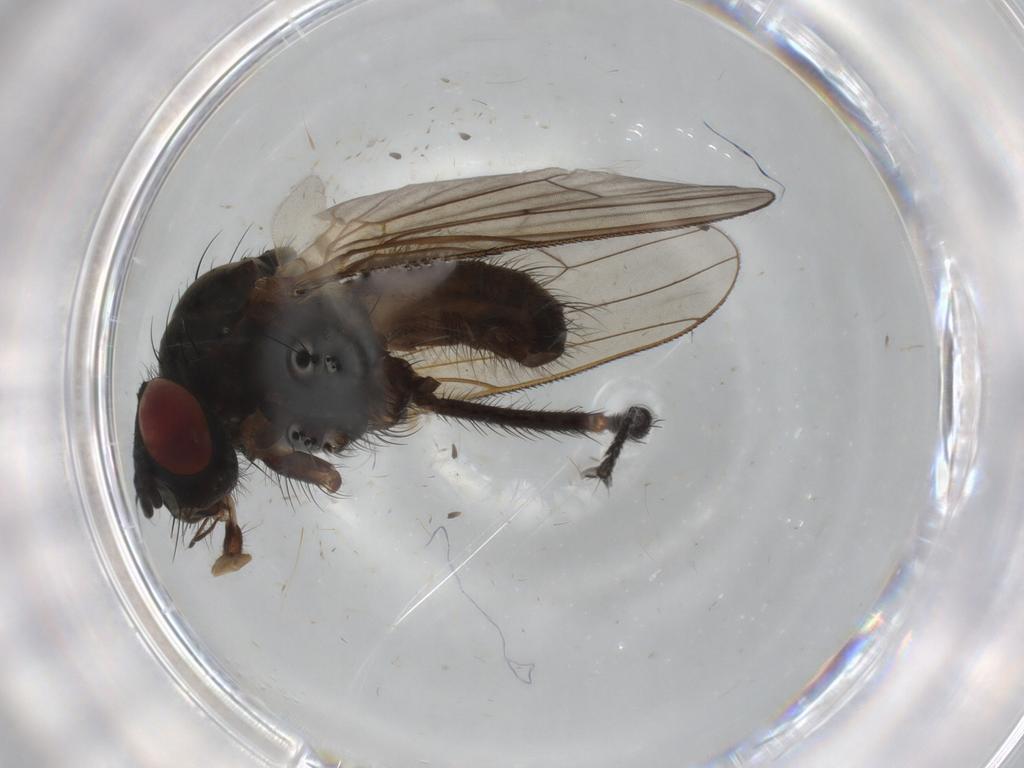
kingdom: Animalia
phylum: Arthropoda
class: Insecta
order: Diptera
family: Anthomyiidae
